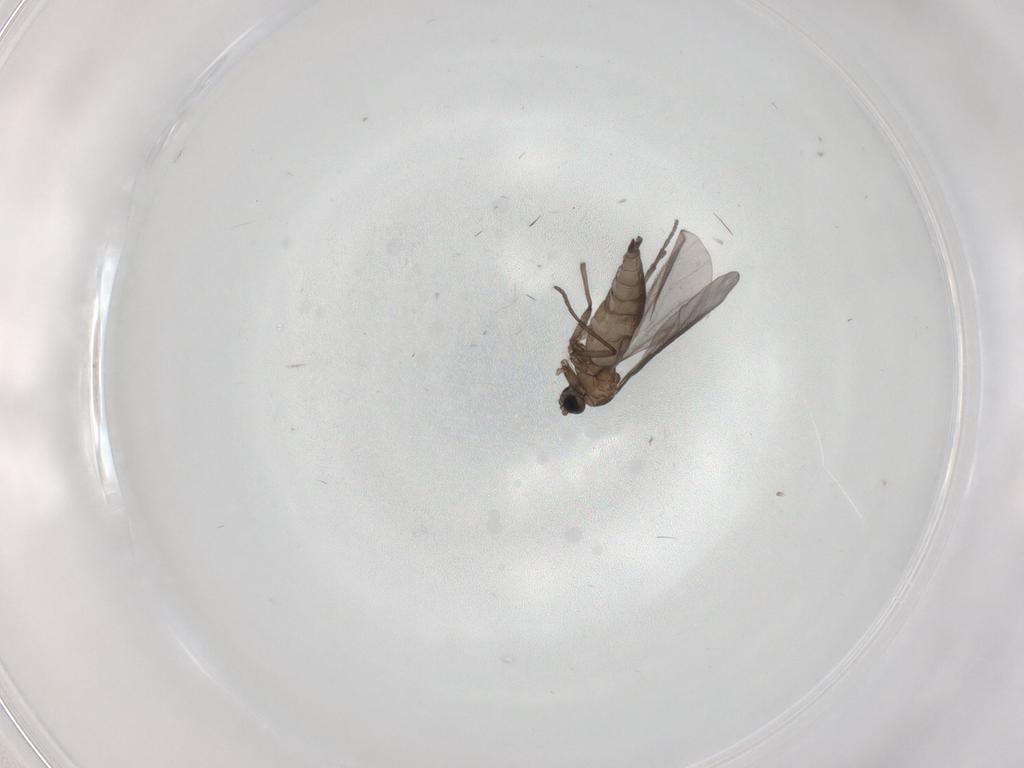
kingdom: Animalia
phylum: Arthropoda
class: Insecta
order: Diptera
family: Sciaridae
